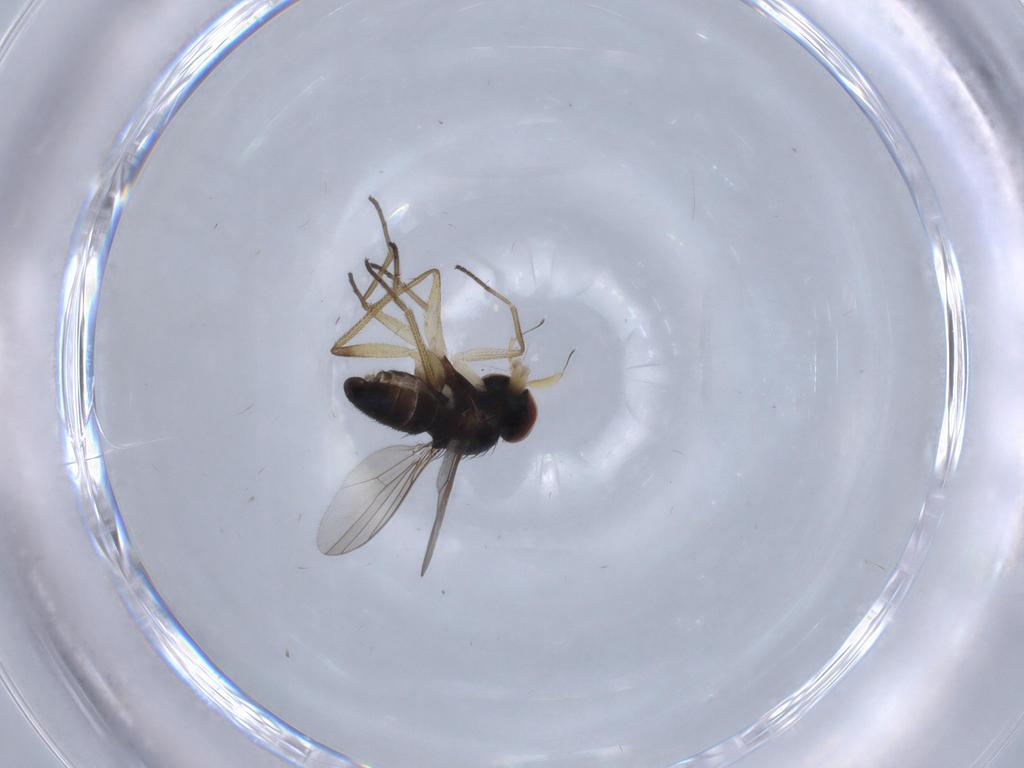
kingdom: Animalia
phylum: Arthropoda
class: Insecta
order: Diptera
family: Dolichopodidae
